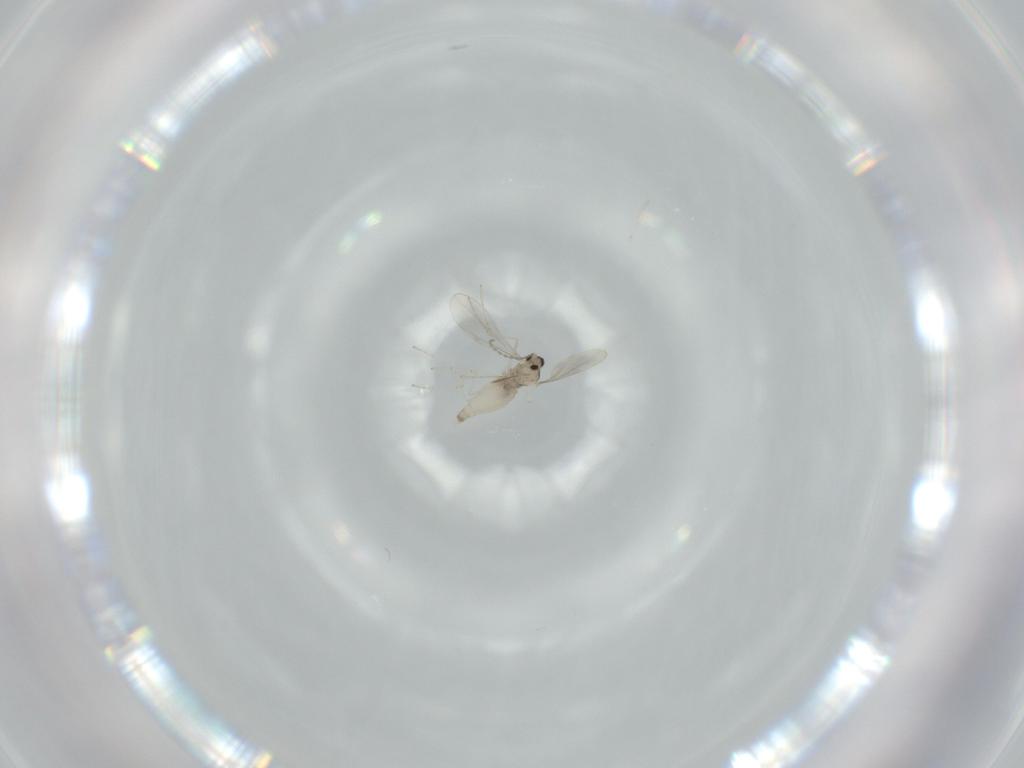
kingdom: Animalia
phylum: Arthropoda
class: Insecta
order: Diptera
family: Cecidomyiidae
